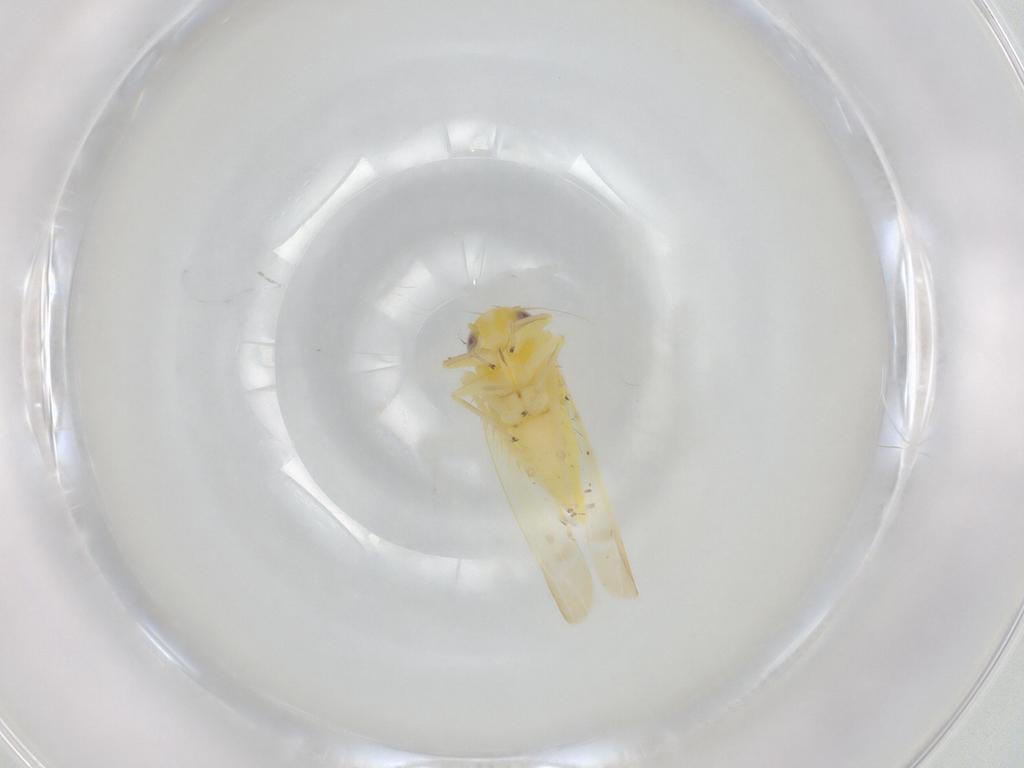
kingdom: Animalia
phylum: Arthropoda
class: Insecta
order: Hemiptera
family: Cicadellidae
